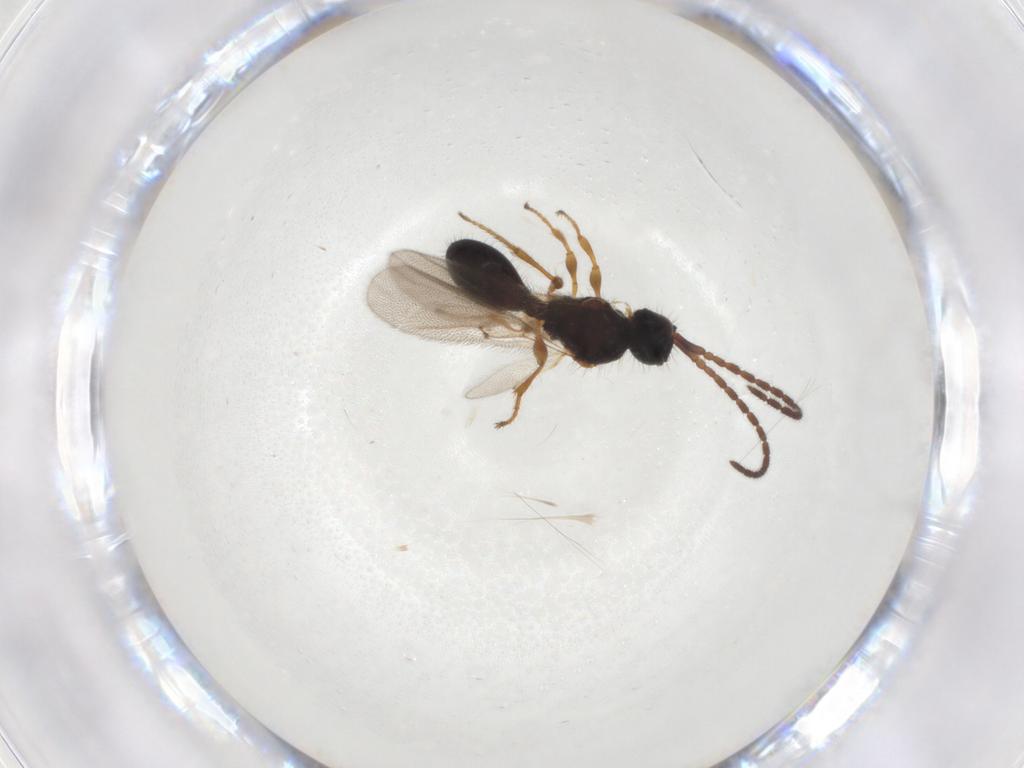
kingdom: Animalia
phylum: Arthropoda
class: Insecta
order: Hymenoptera
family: Diapriidae
